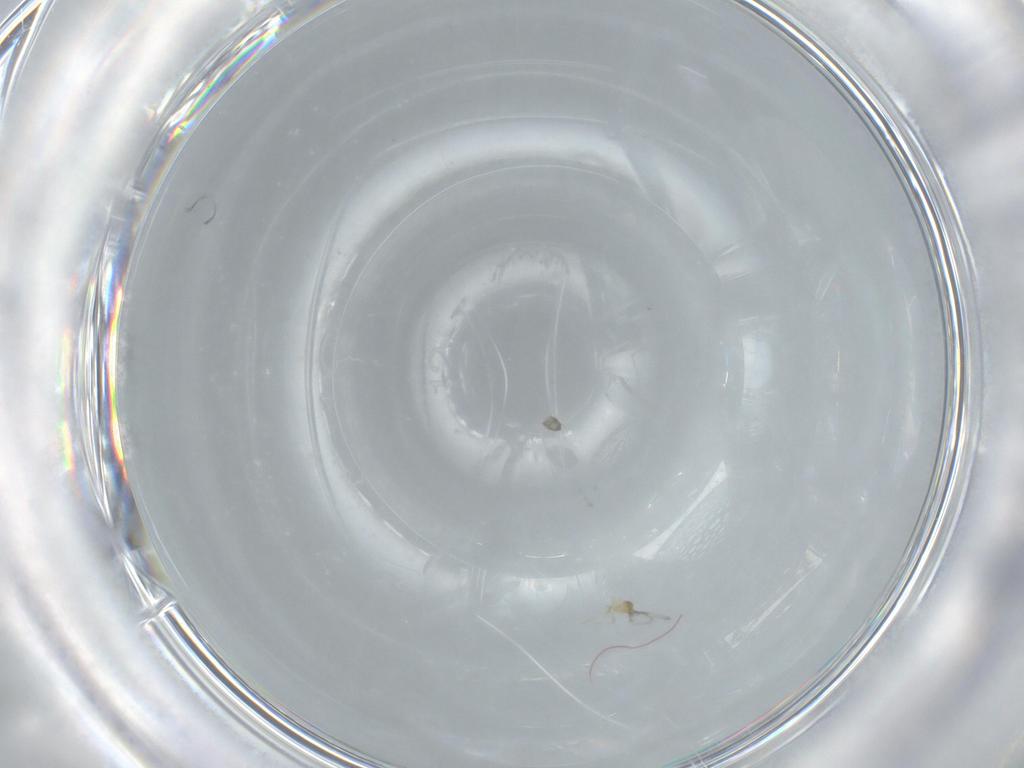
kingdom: Animalia
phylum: Arthropoda
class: Insecta
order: Hymenoptera
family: Trichogrammatidae
